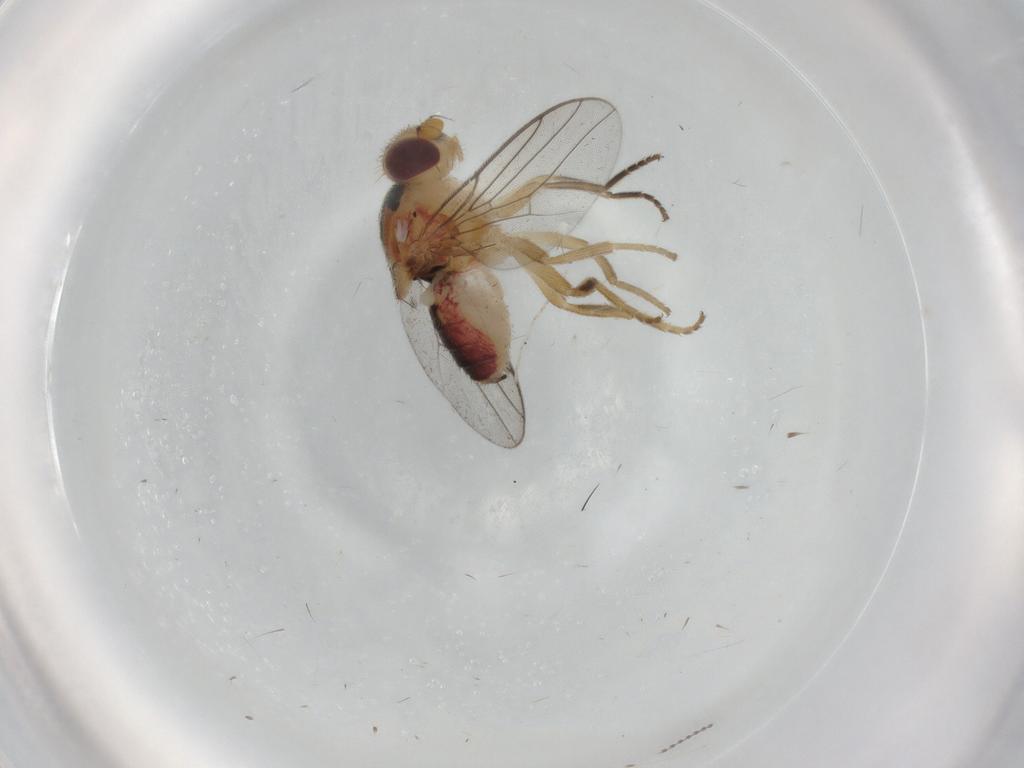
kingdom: Animalia
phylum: Arthropoda
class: Insecta
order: Diptera
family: Chloropidae
